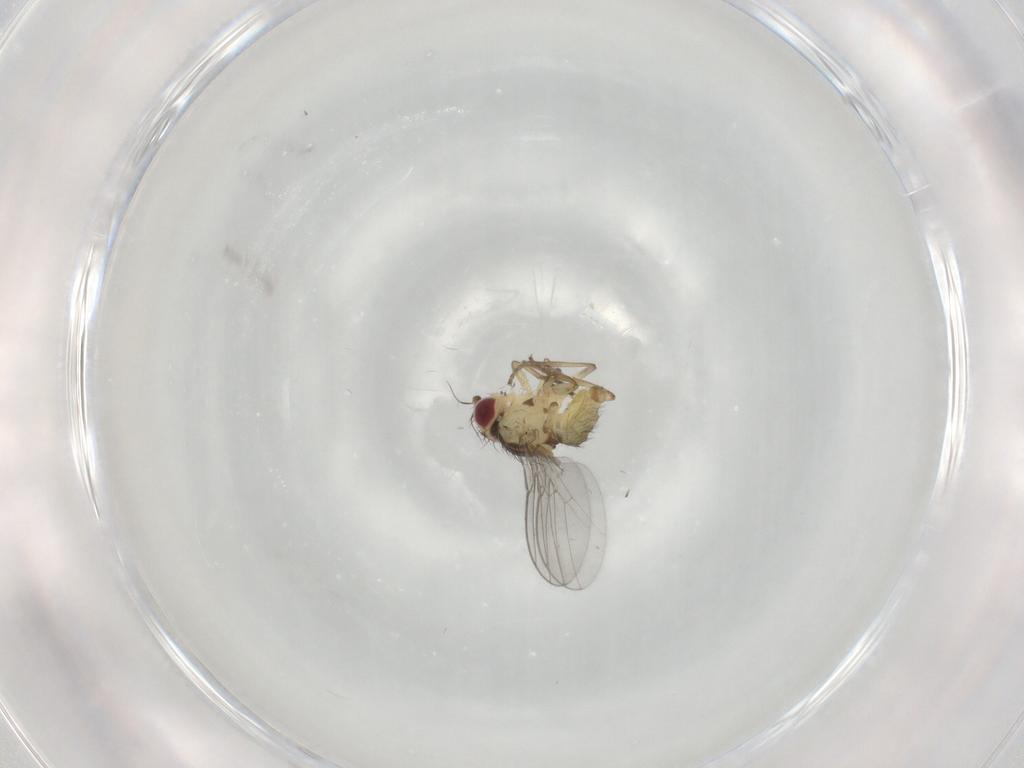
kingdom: Animalia
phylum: Arthropoda
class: Insecta
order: Diptera
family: Agromyzidae
